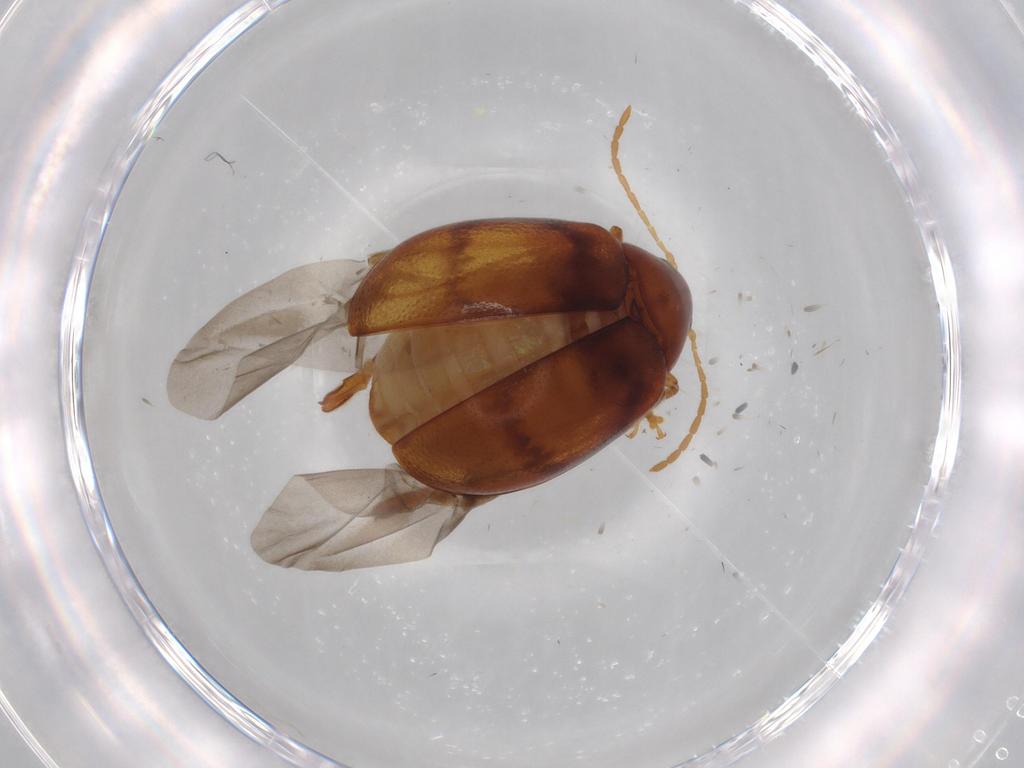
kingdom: Animalia
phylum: Arthropoda
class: Insecta
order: Coleoptera
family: Chrysomelidae
